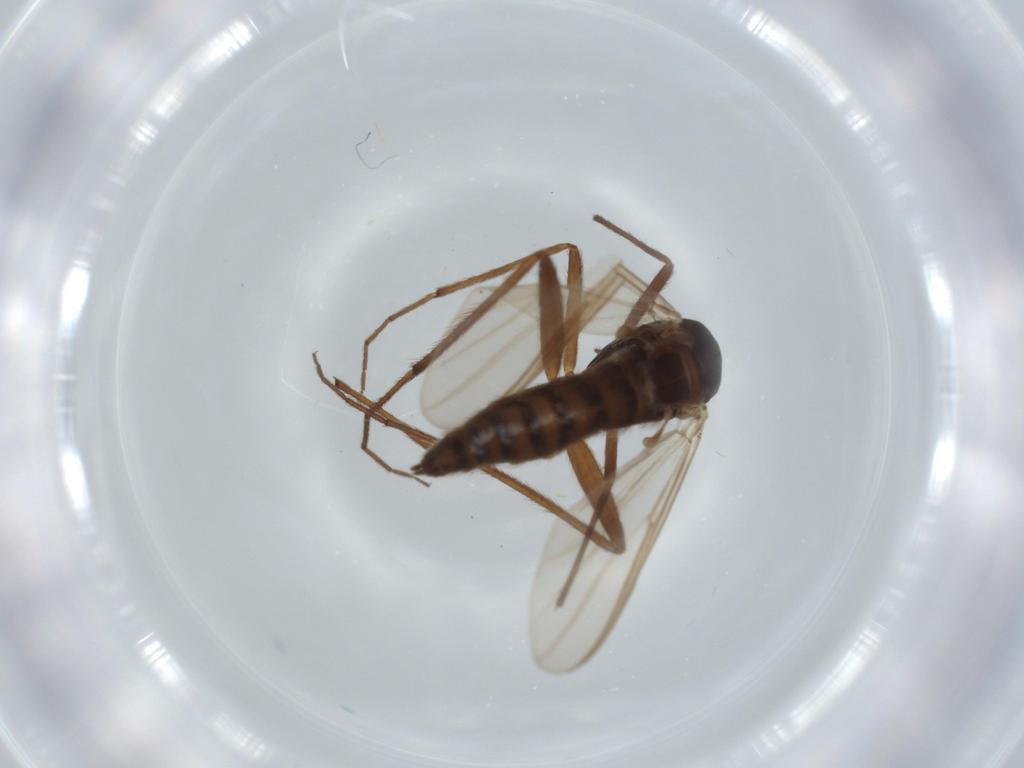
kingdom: Animalia
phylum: Arthropoda
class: Insecta
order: Diptera
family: Chironomidae
